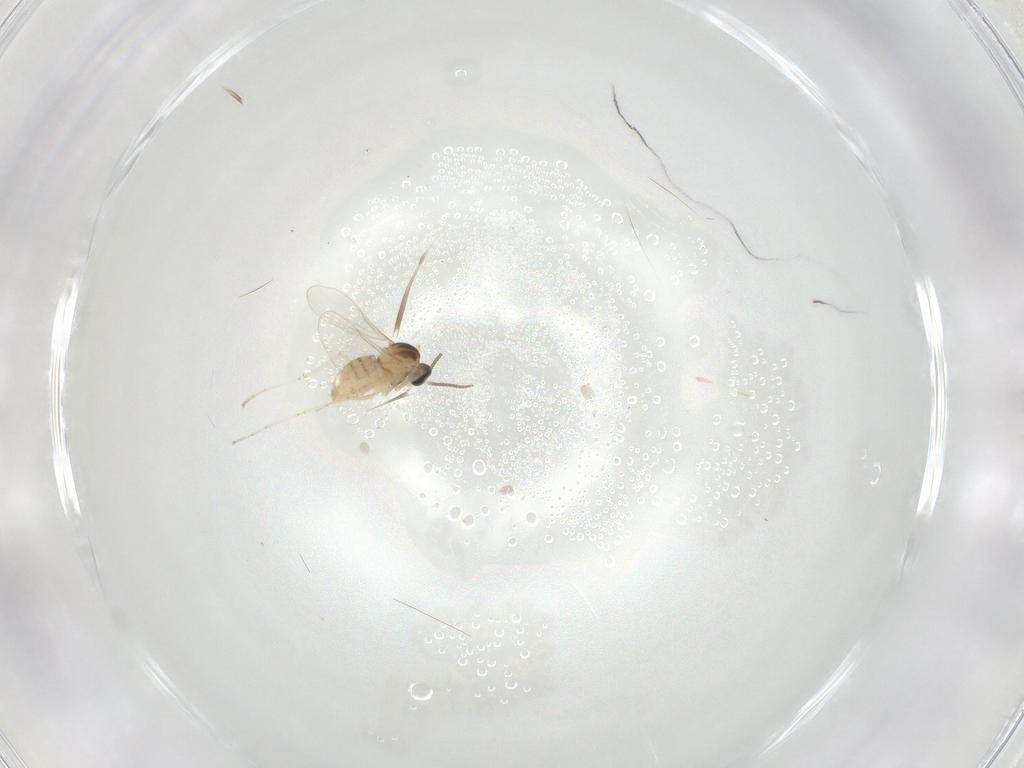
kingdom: Animalia
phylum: Arthropoda
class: Insecta
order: Diptera
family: Cecidomyiidae
